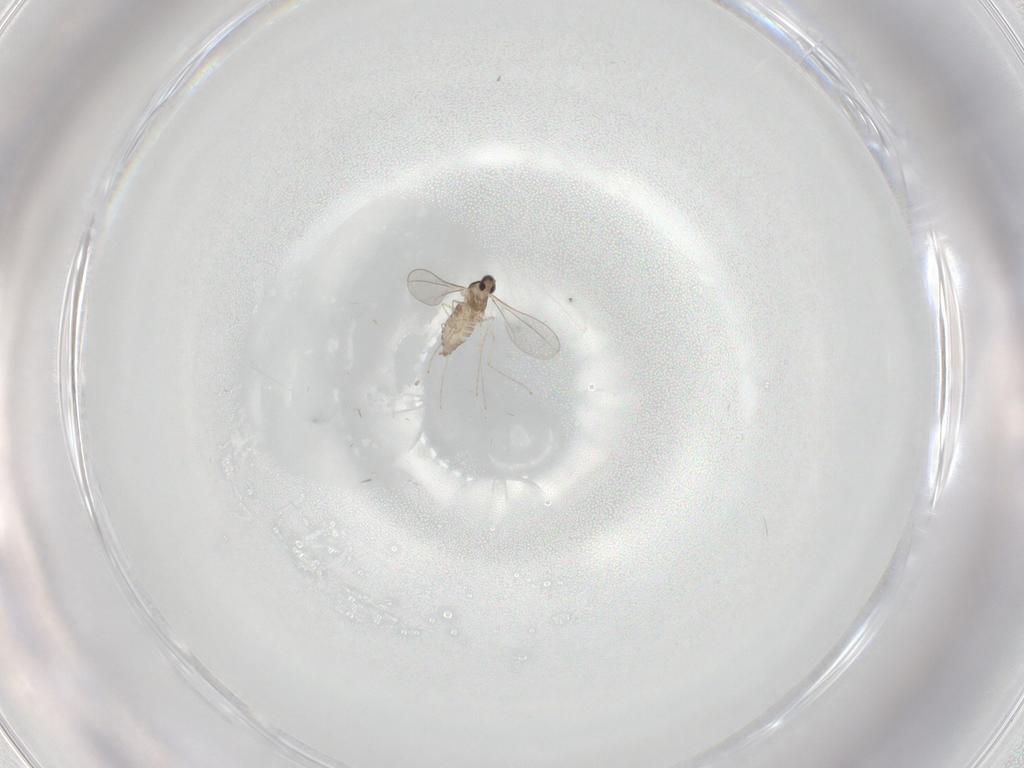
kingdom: Animalia
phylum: Arthropoda
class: Insecta
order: Diptera
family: Cecidomyiidae
